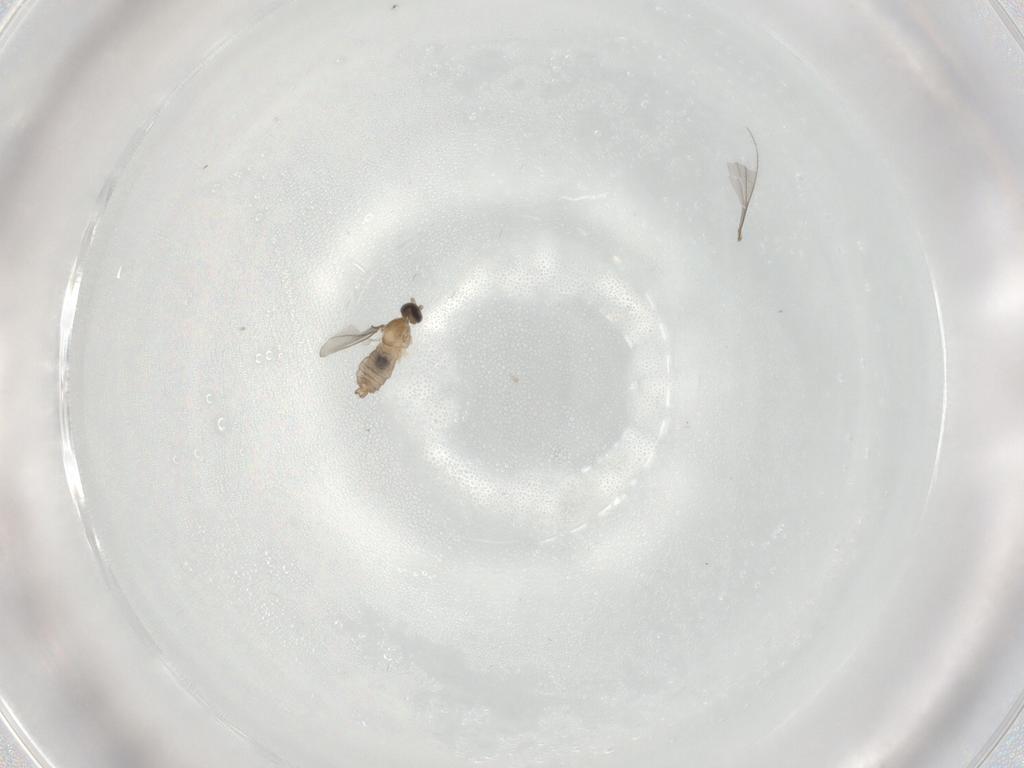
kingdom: Animalia
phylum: Arthropoda
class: Insecta
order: Diptera
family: Cecidomyiidae
